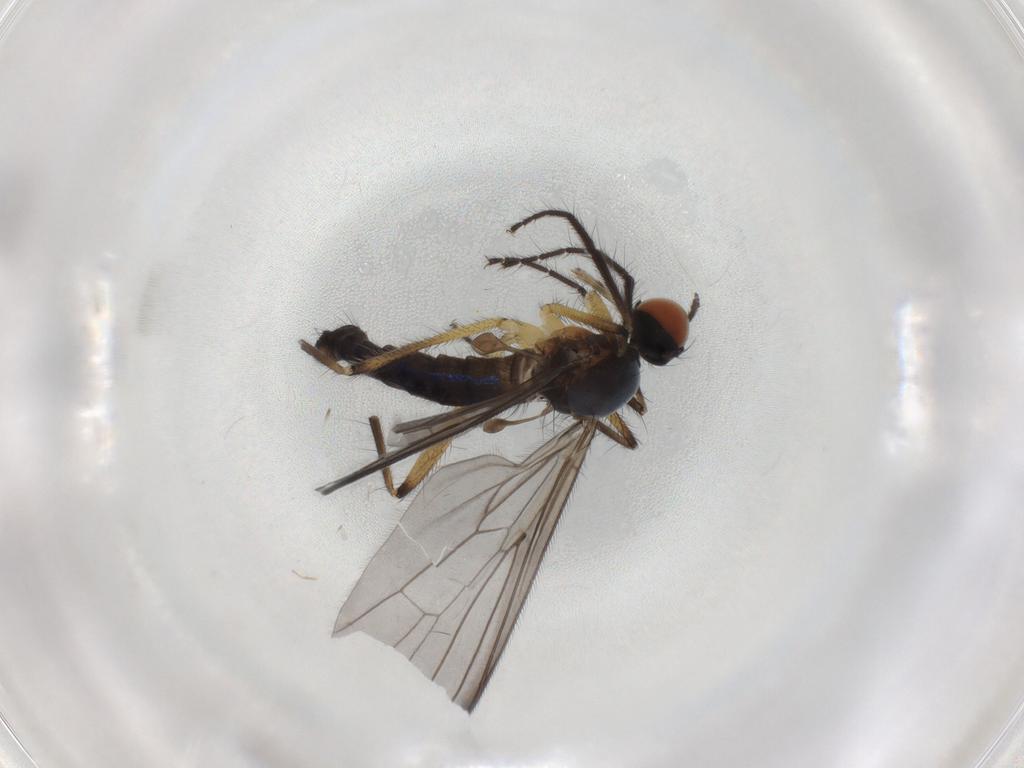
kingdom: Animalia
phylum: Arthropoda
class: Insecta
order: Diptera
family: Empididae
